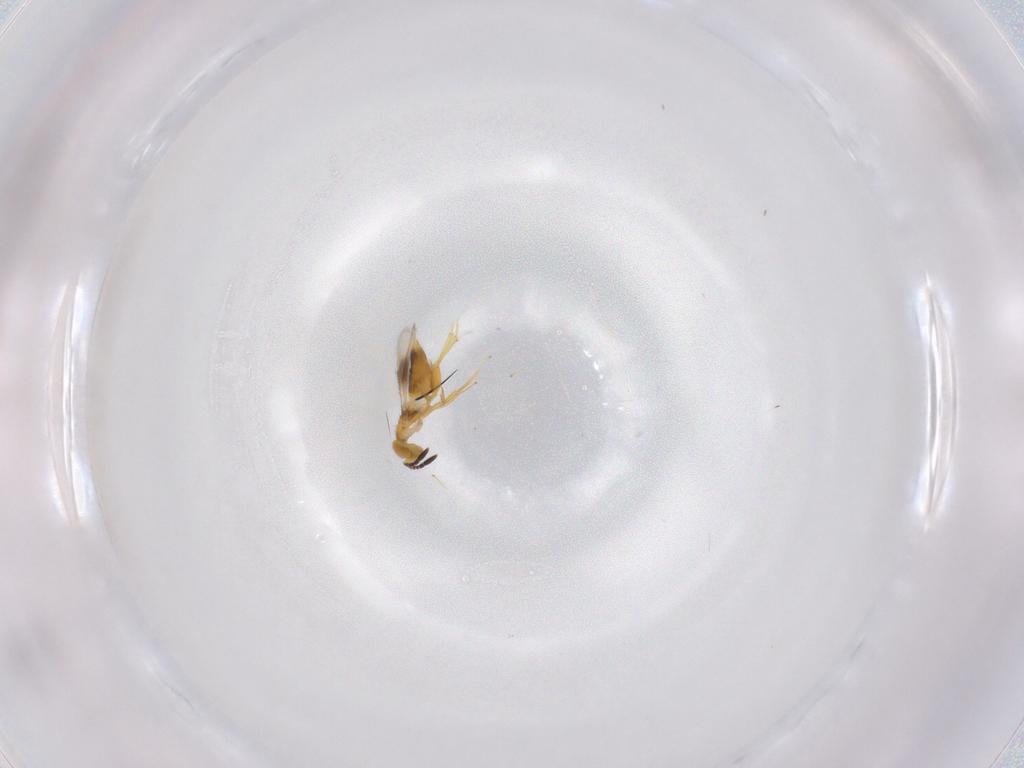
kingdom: Animalia
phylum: Arthropoda
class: Insecta
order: Hymenoptera
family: Encyrtidae
